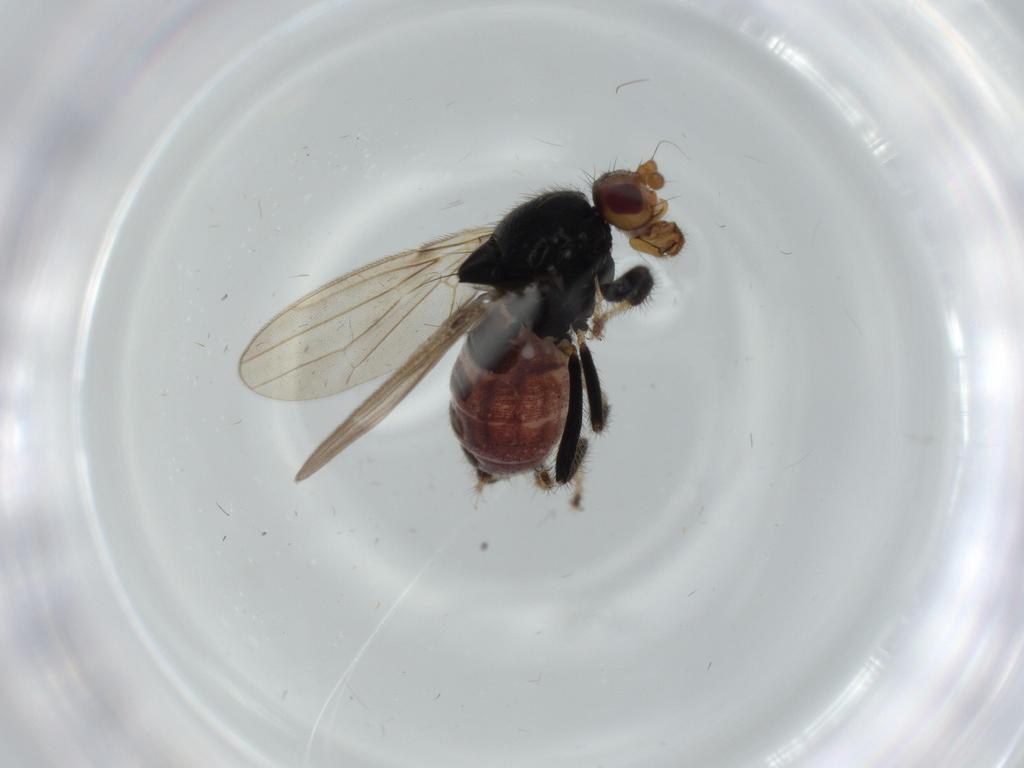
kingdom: Animalia
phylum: Arthropoda
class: Insecta
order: Diptera
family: Sphaeroceridae
